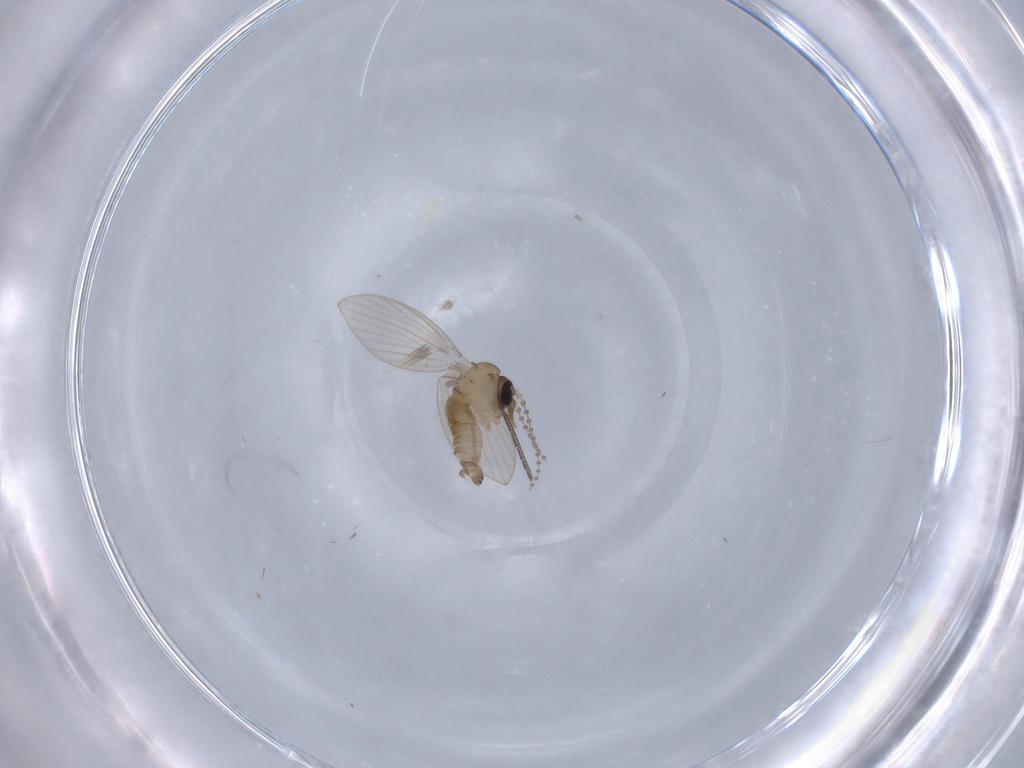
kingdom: Animalia
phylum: Arthropoda
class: Insecta
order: Diptera
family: Psychodidae
